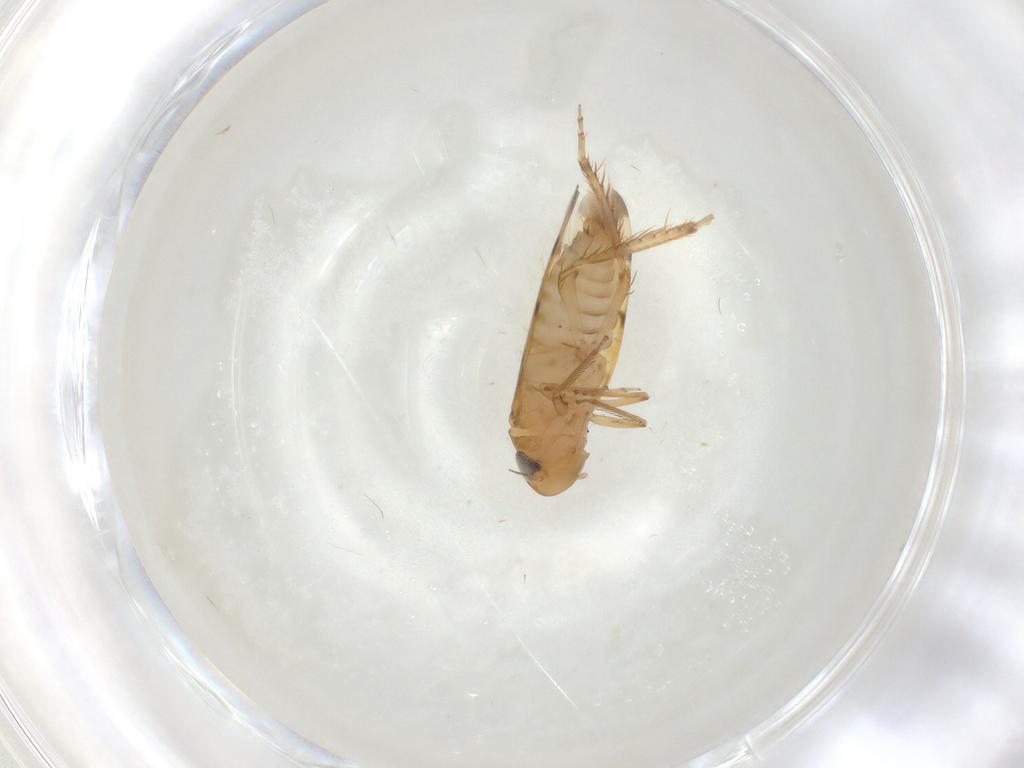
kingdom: Animalia
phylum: Arthropoda
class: Insecta
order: Hemiptera
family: Cicadellidae
